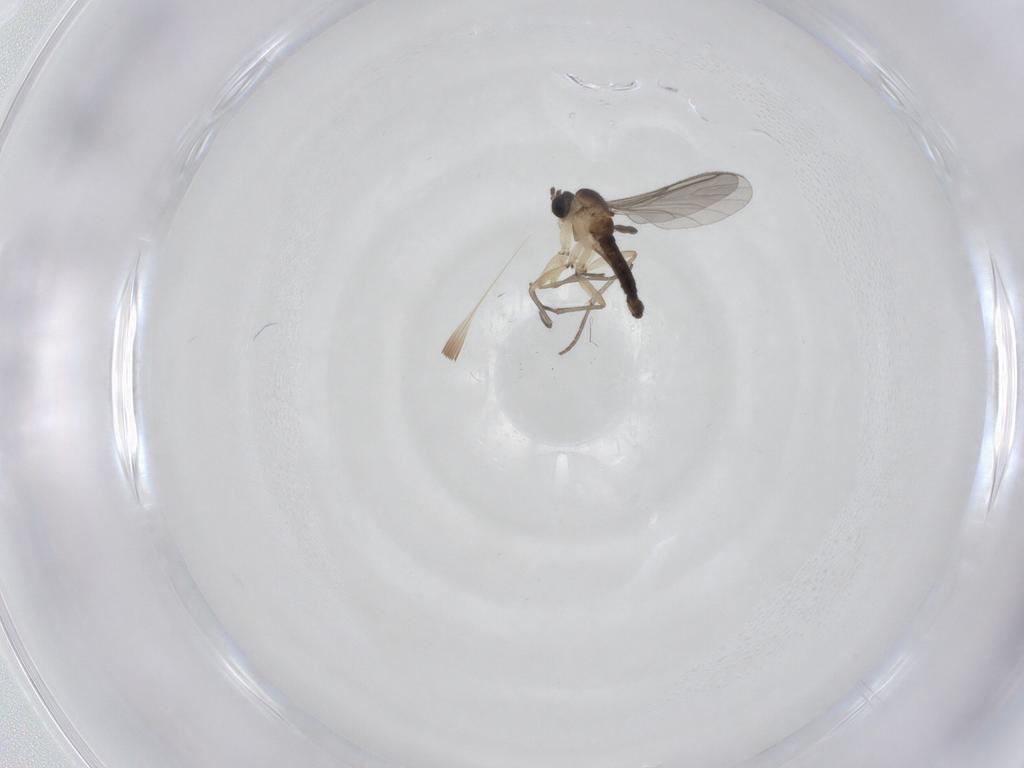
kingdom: Animalia
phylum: Arthropoda
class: Insecta
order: Diptera
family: Sciaridae
